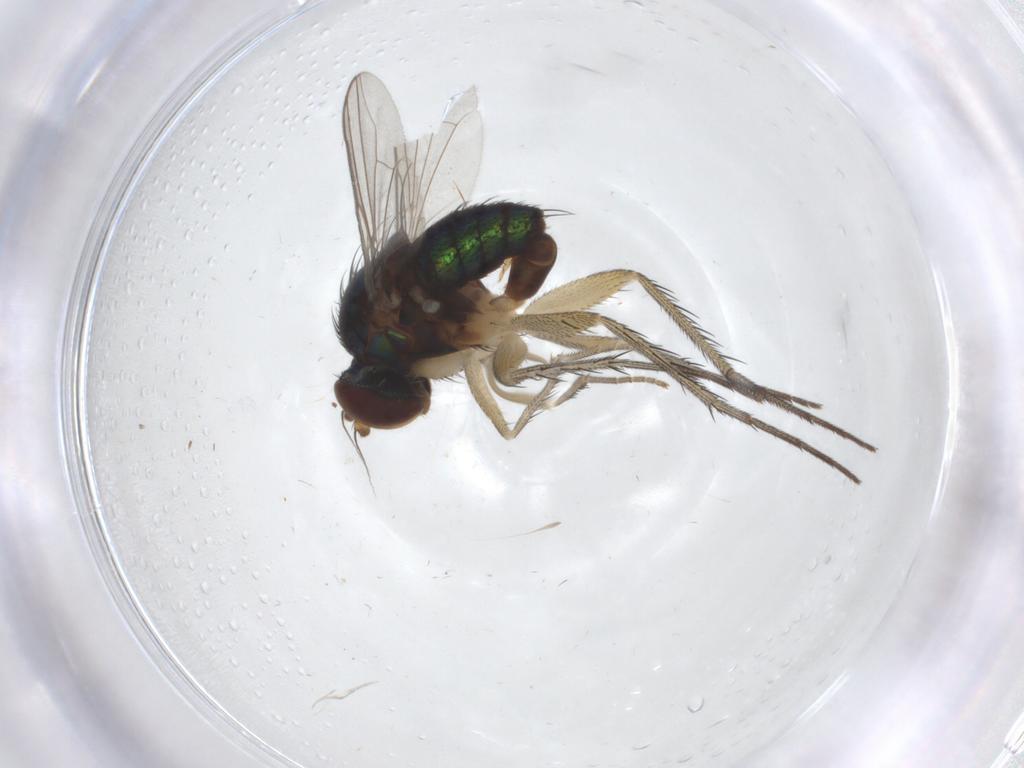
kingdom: Animalia
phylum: Arthropoda
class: Insecta
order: Diptera
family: Dolichopodidae
